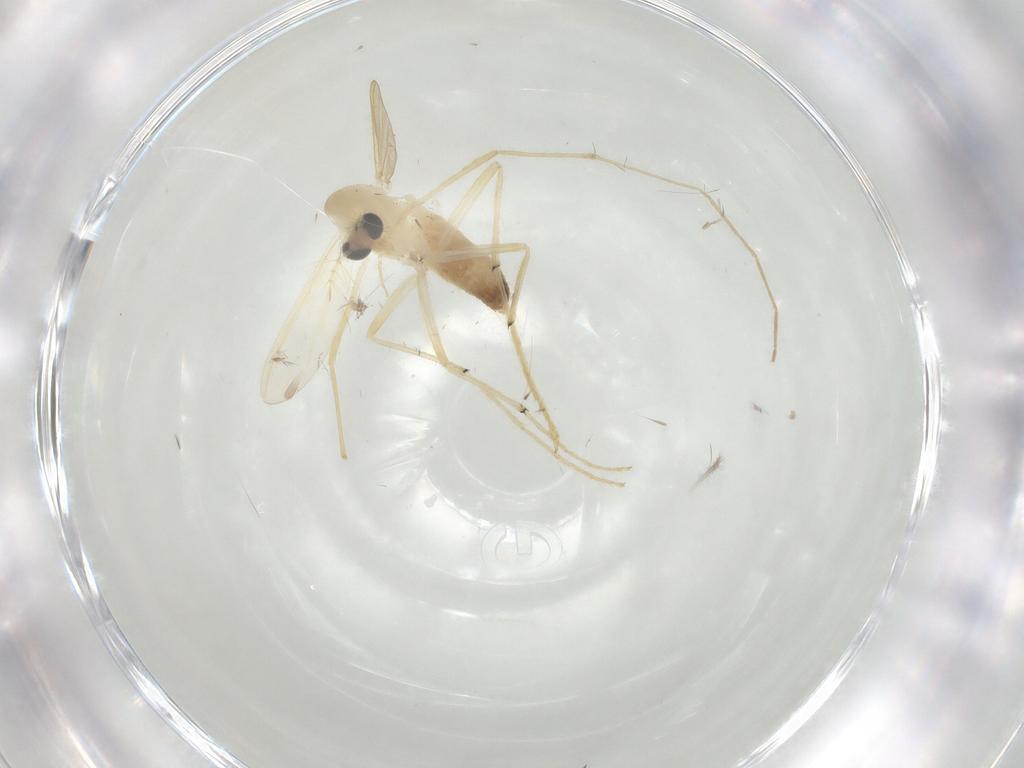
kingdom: Animalia
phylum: Arthropoda
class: Insecta
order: Diptera
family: Chironomidae
